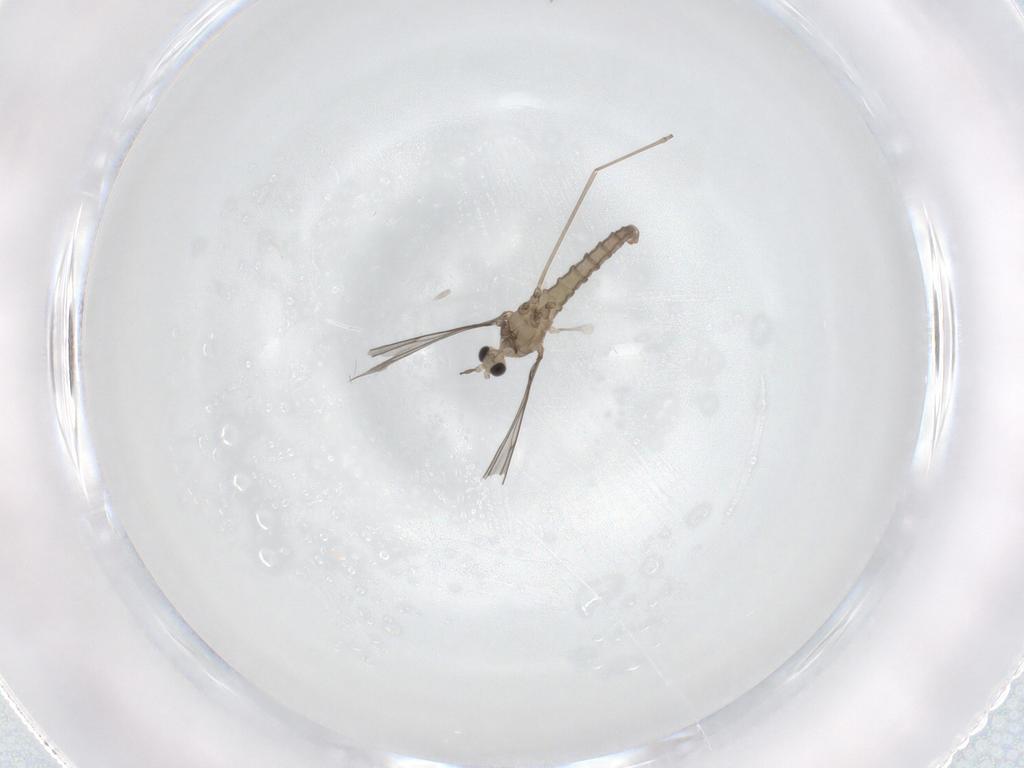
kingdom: Animalia
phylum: Arthropoda
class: Insecta
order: Diptera
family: Cecidomyiidae
